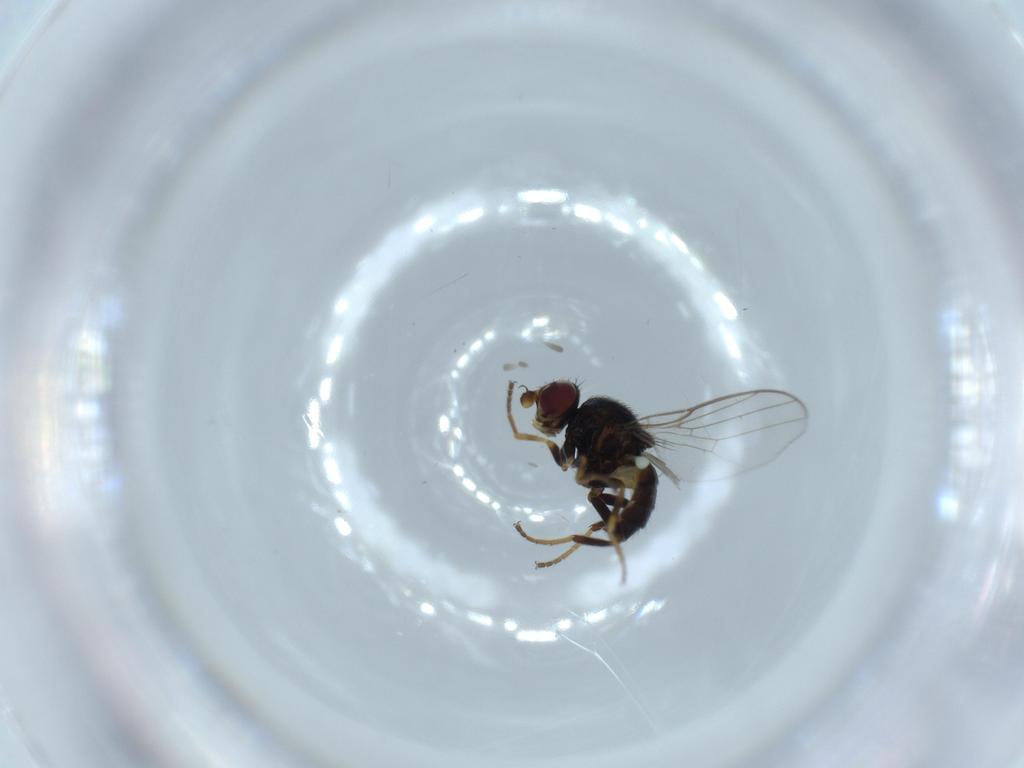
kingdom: Animalia
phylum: Arthropoda
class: Insecta
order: Diptera
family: Chloropidae
